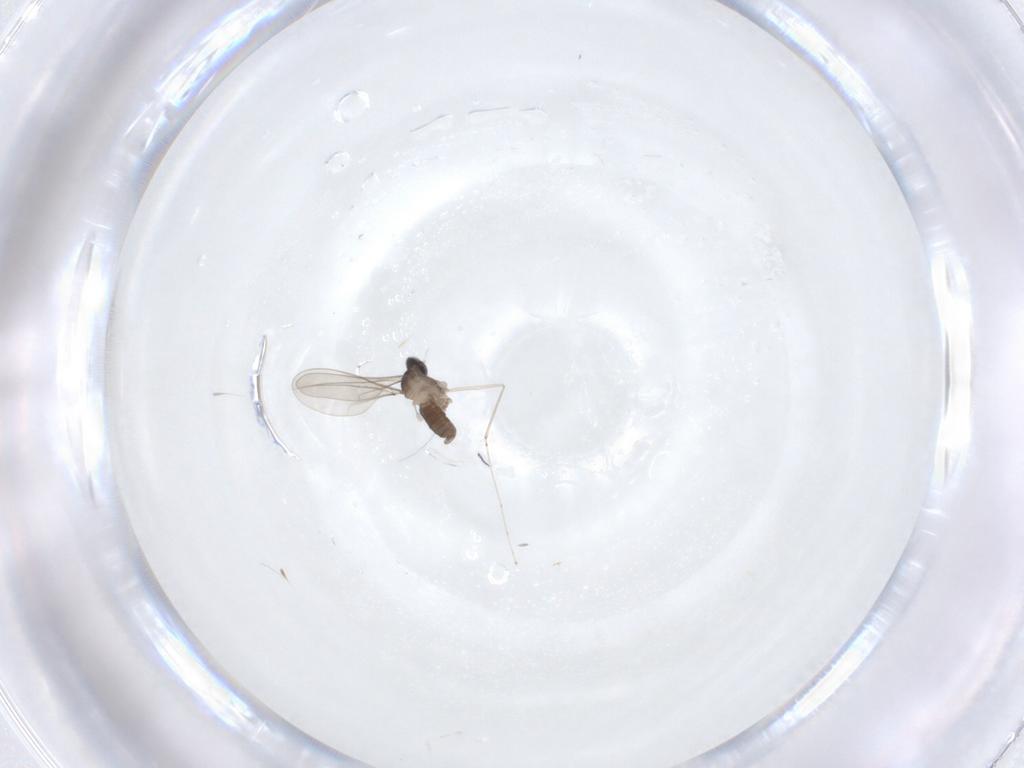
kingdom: Animalia
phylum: Arthropoda
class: Insecta
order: Diptera
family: Cecidomyiidae
